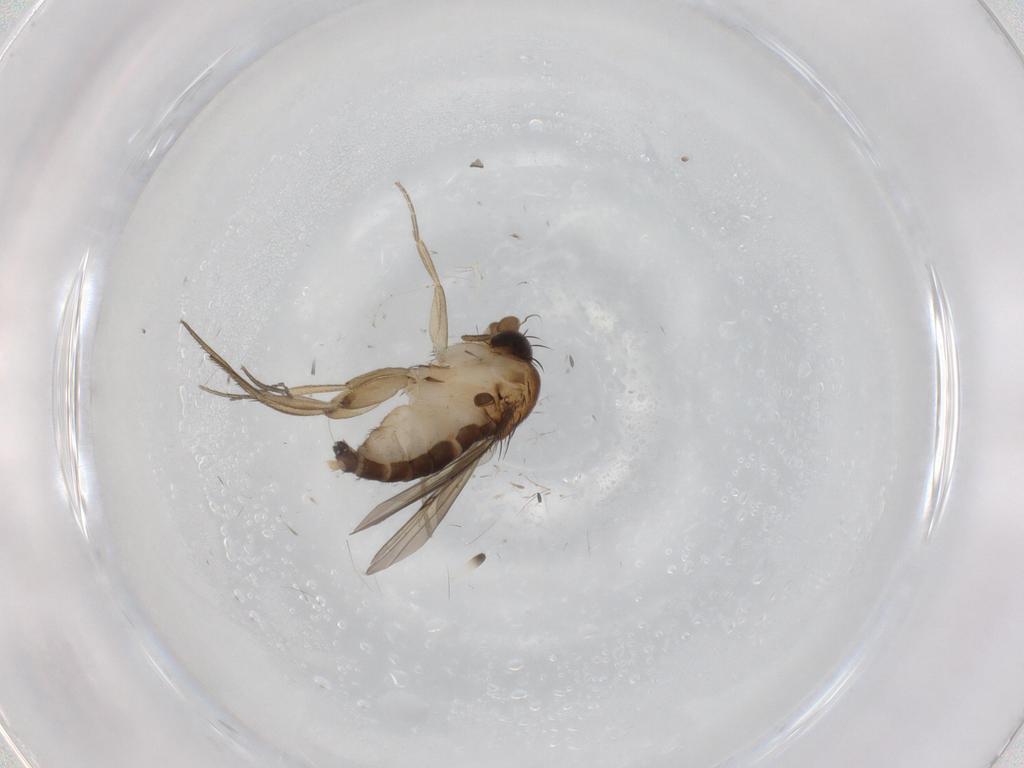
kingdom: Animalia
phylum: Arthropoda
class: Insecta
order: Diptera
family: Phoridae
